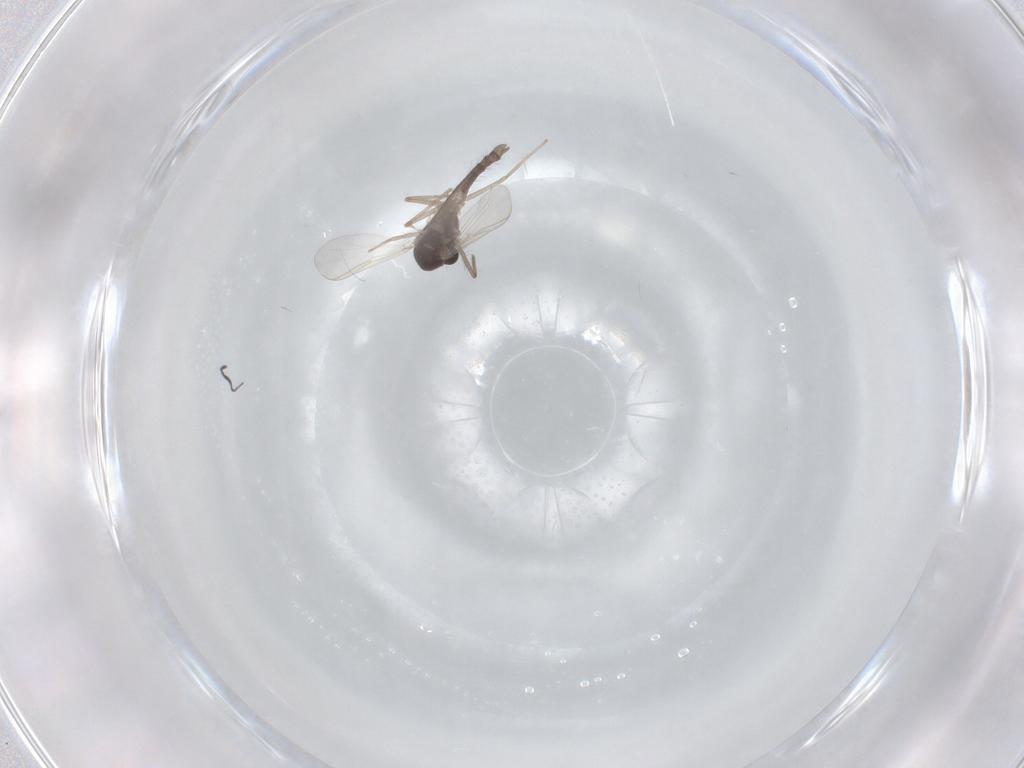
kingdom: Animalia
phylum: Arthropoda
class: Insecta
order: Diptera
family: Chironomidae
